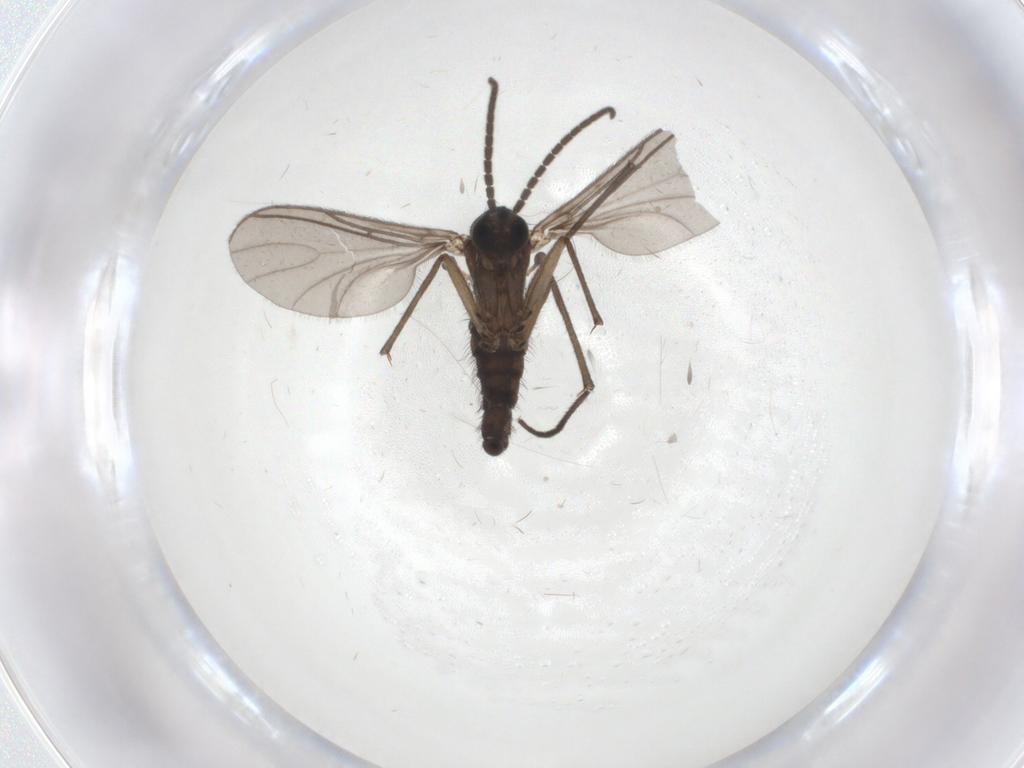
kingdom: Animalia
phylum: Arthropoda
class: Insecta
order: Diptera
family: Sciaridae
